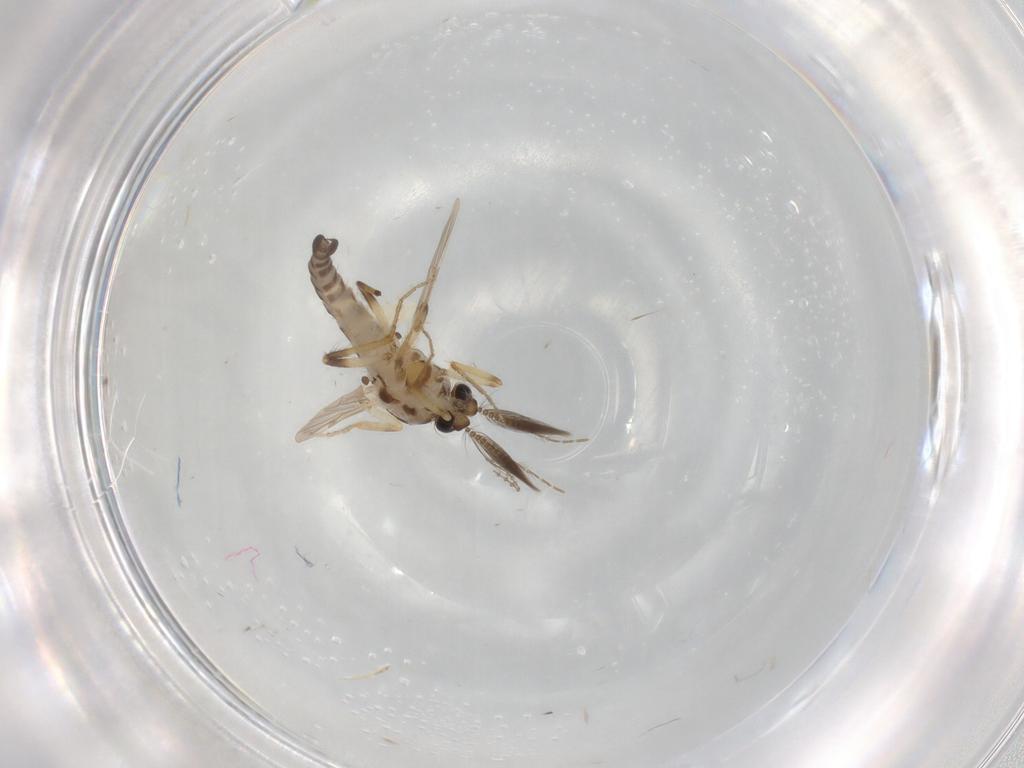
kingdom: Animalia
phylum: Arthropoda
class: Insecta
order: Diptera
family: Ceratopogonidae
